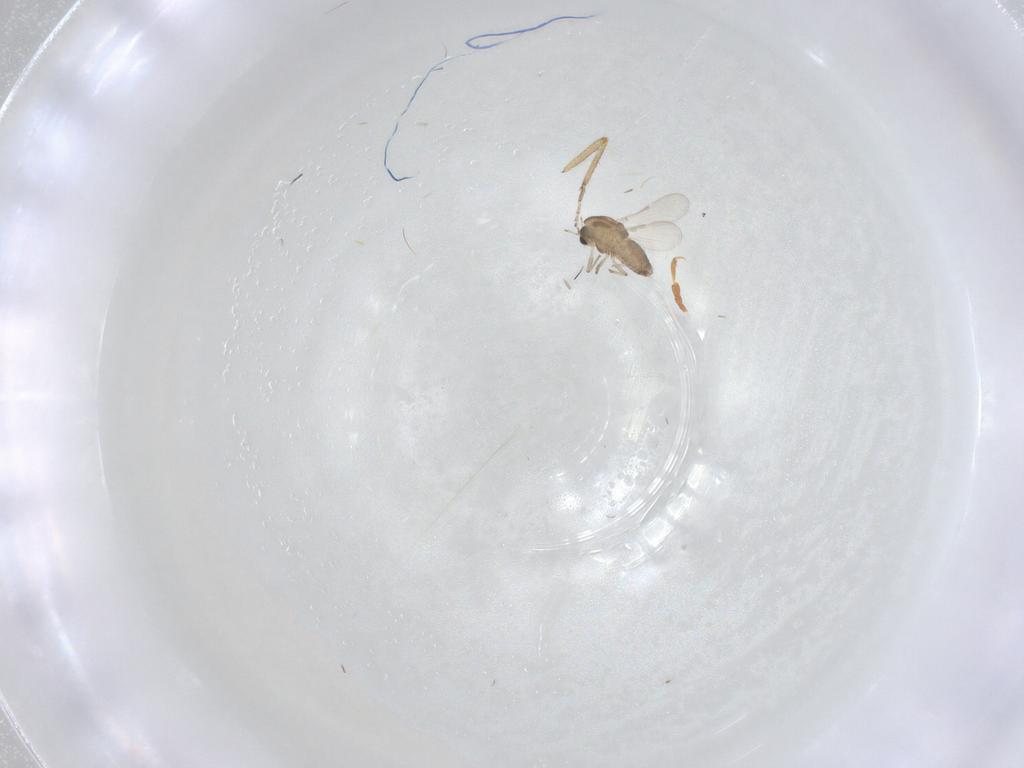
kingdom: Animalia
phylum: Arthropoda
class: Insecta
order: Diptera
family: Chironomidae
